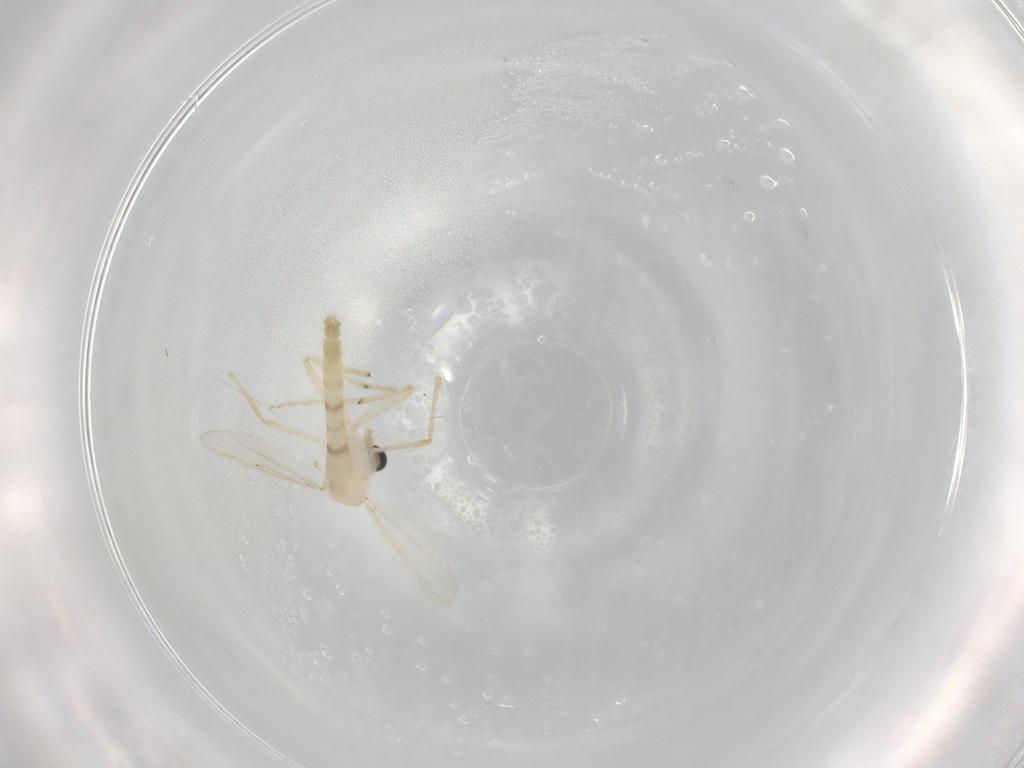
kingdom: Animalia
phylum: Arthropoda
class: Insecta
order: Diptera
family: Chironomidae
